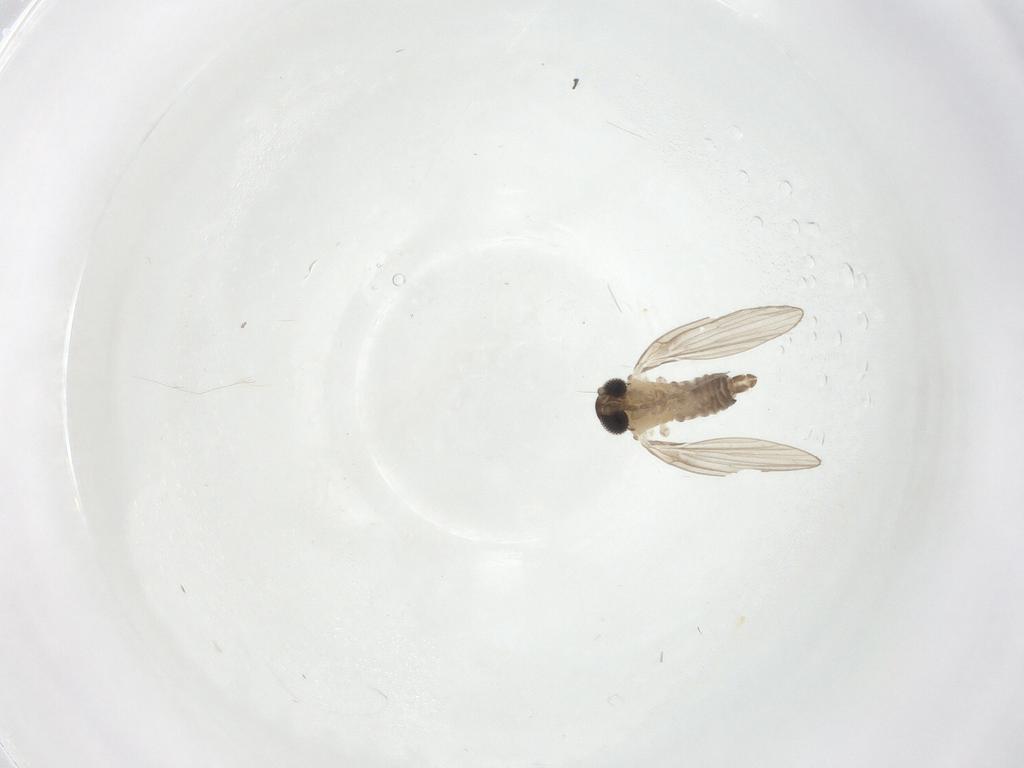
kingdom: Animalia
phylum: Arthropoda
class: Insecta
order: Diptera
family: Psychodidae
